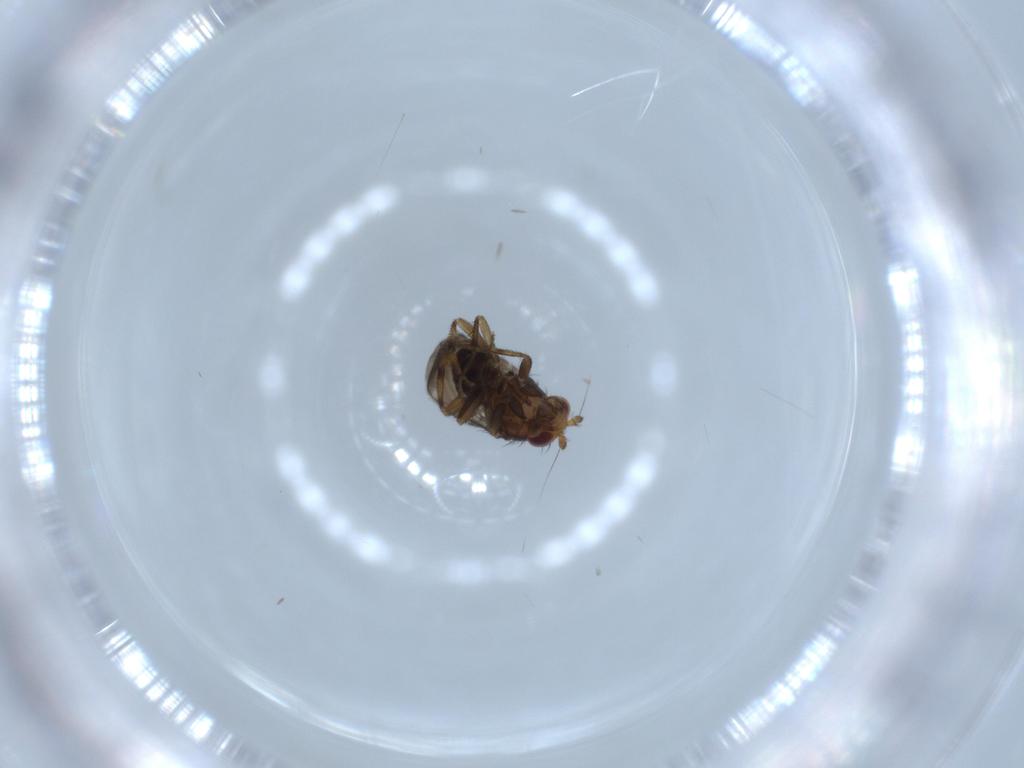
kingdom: Animalia
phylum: Arthropoda
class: Insecta
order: Diptera
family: Sphaeroceridae
